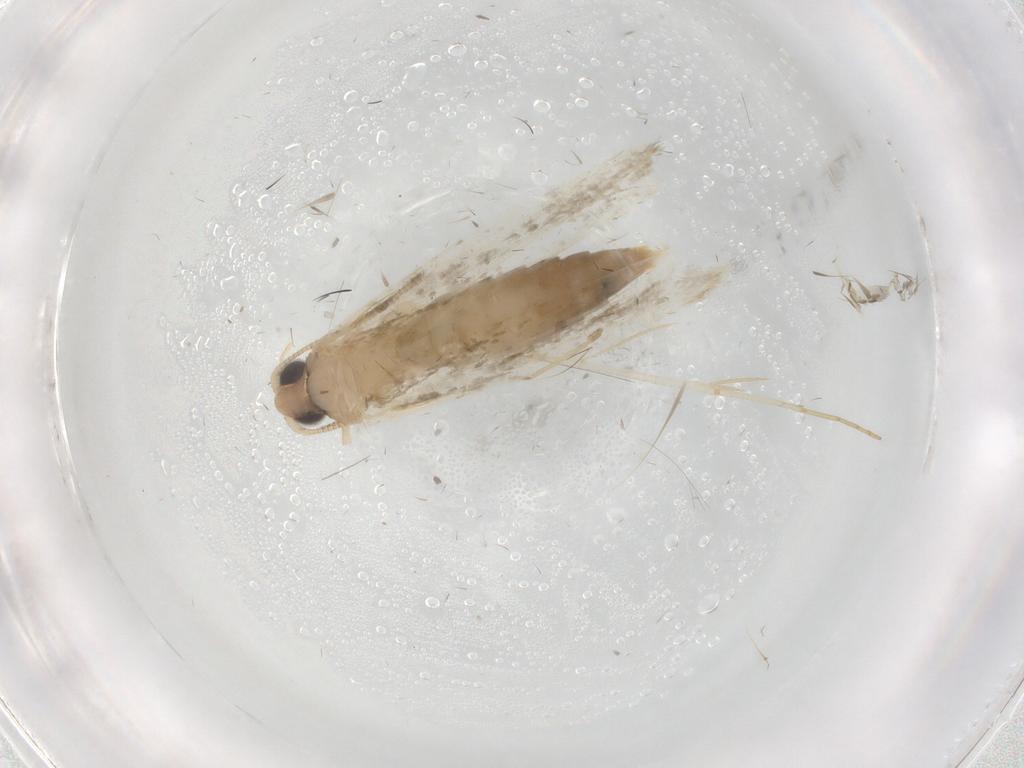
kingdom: Animalia
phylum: Arthropoda
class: Insecta
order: Lepidoptera
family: Tineidae
